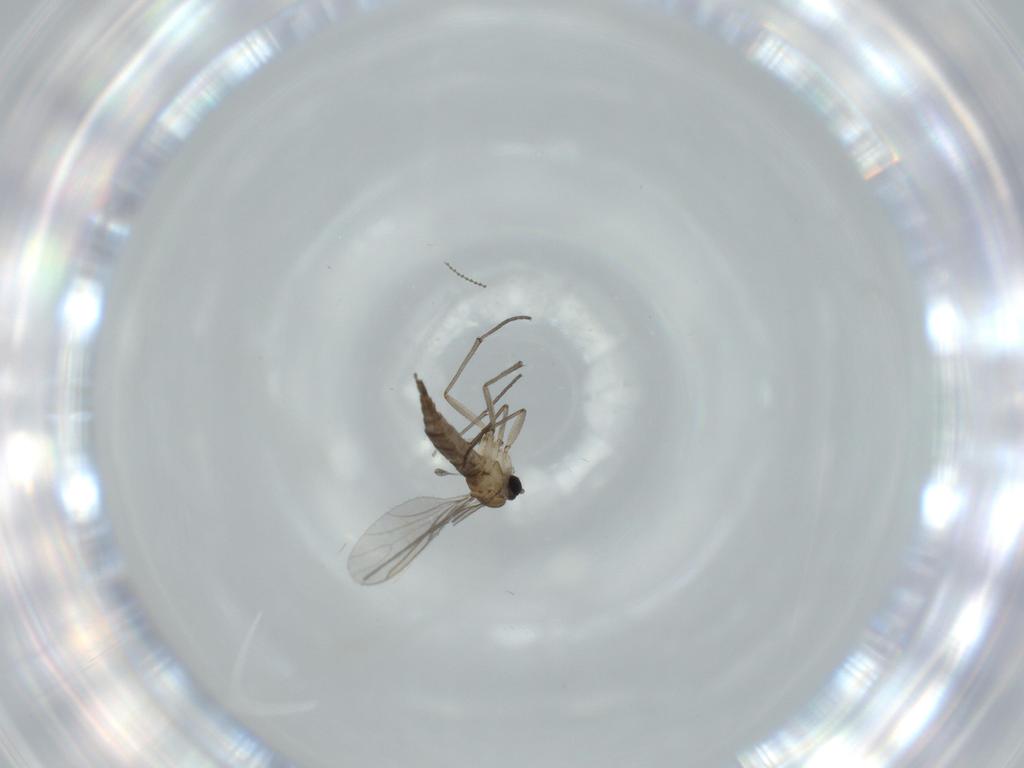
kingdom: Animalia
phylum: Arthropoda
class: Insecta
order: Diptera
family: Sciaridae
